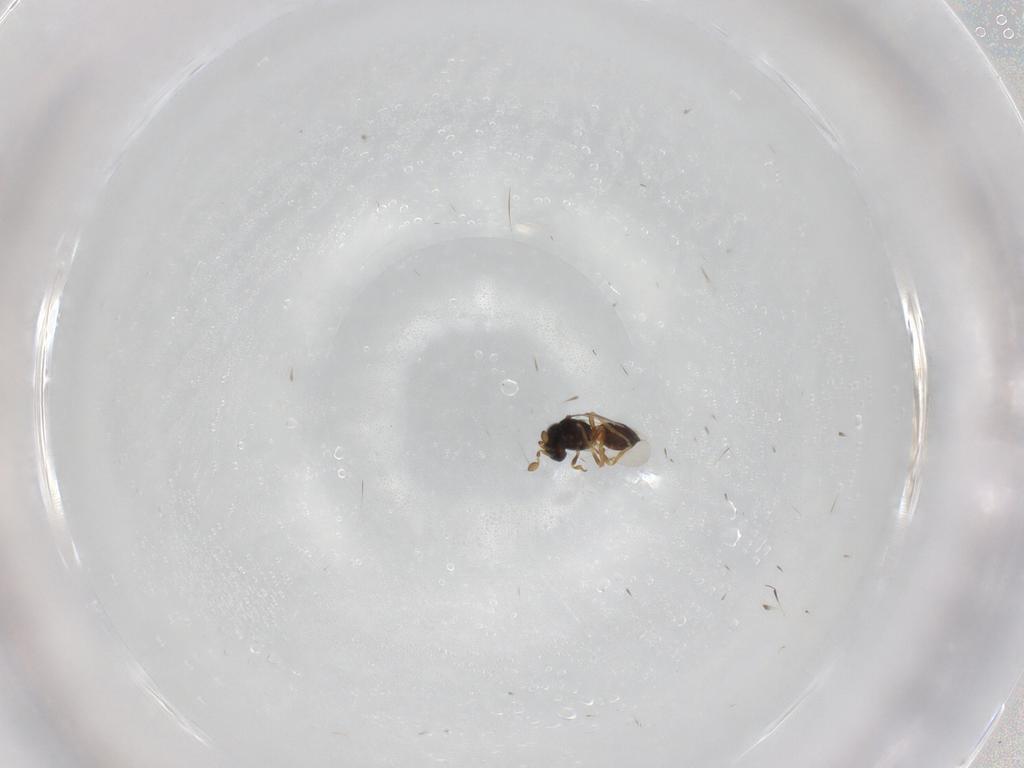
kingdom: Animalia
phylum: Arthropoda
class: Insecta
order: Hymenoptera
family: Scelionidae
